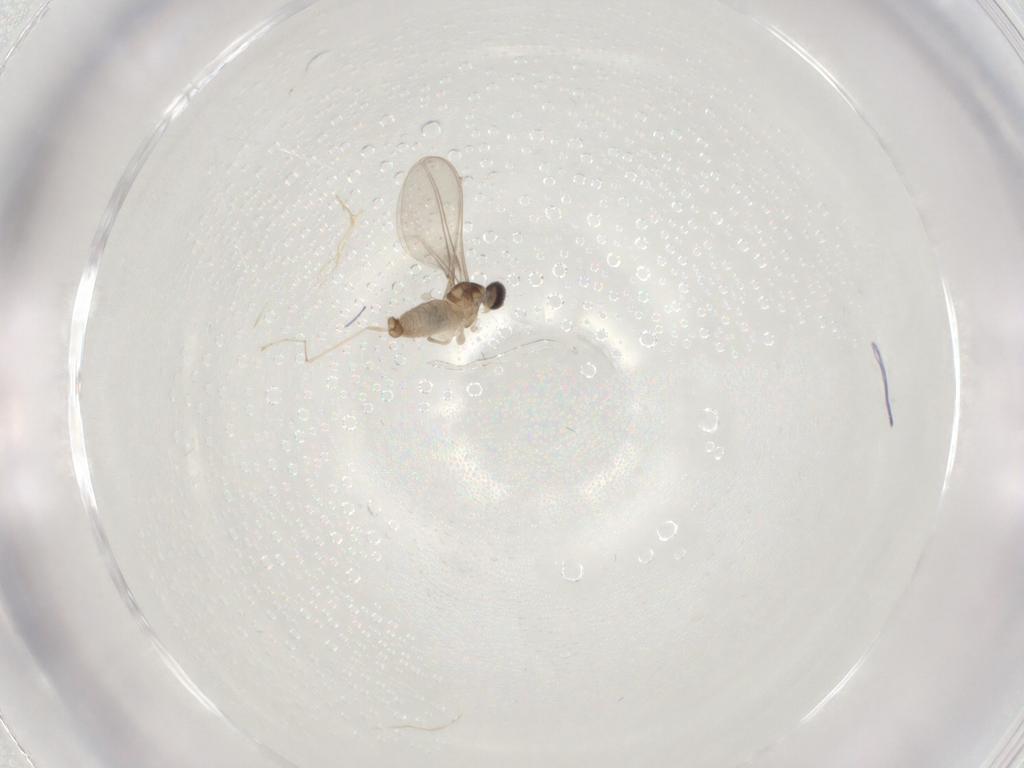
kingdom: Animalia
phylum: Arthropoda
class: Insecta
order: Diptera
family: Cecidomyiidae
